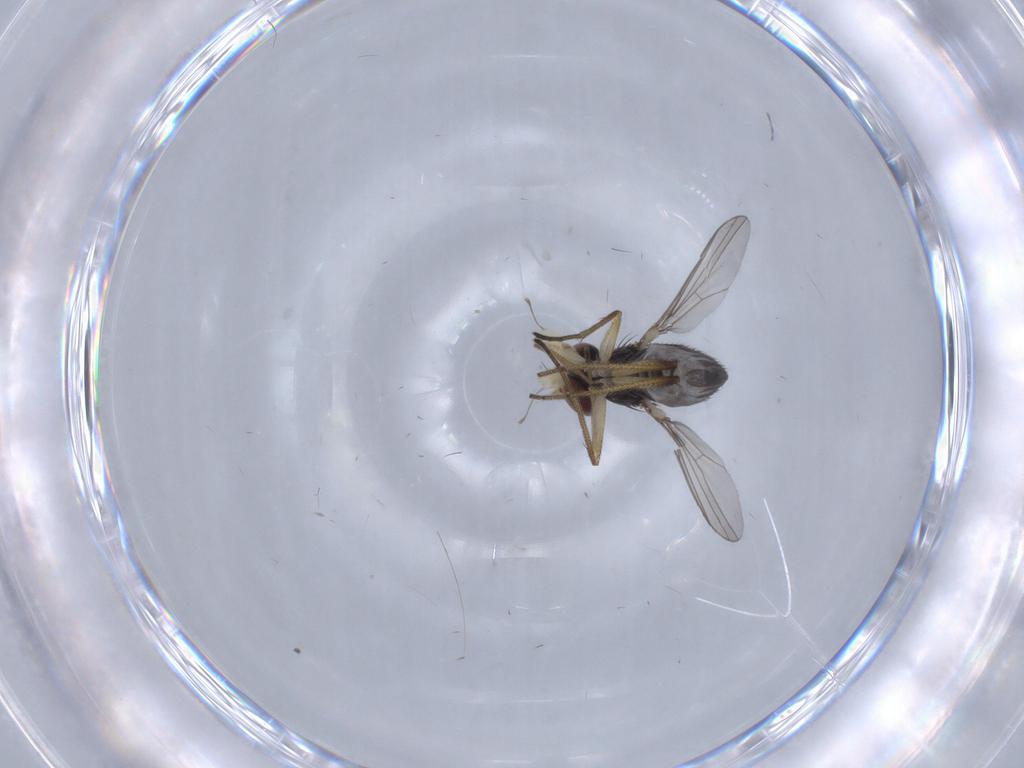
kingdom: Animalia
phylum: Arthropoda
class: Insecta
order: Diptera
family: Dolichopodidae
